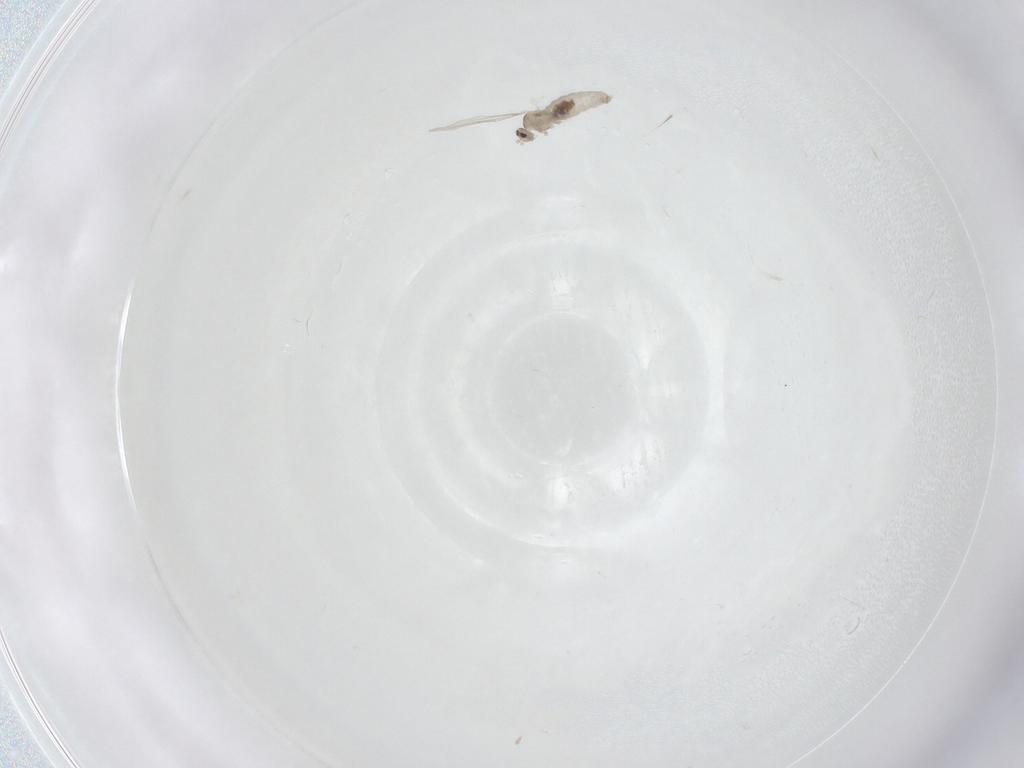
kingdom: Animalia
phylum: Arthropoda
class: Insecta
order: Diptera
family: Cecidomyiidae
